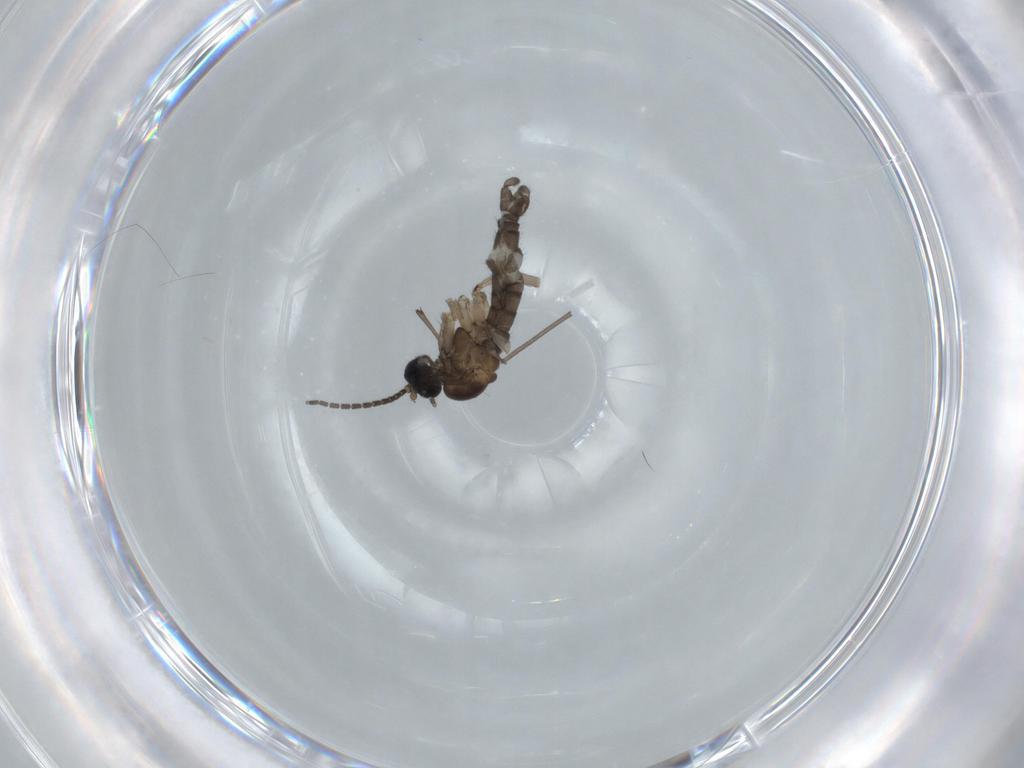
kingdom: Animalia
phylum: Arthropoda
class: Insecta
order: Diptera
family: Sciaridae
